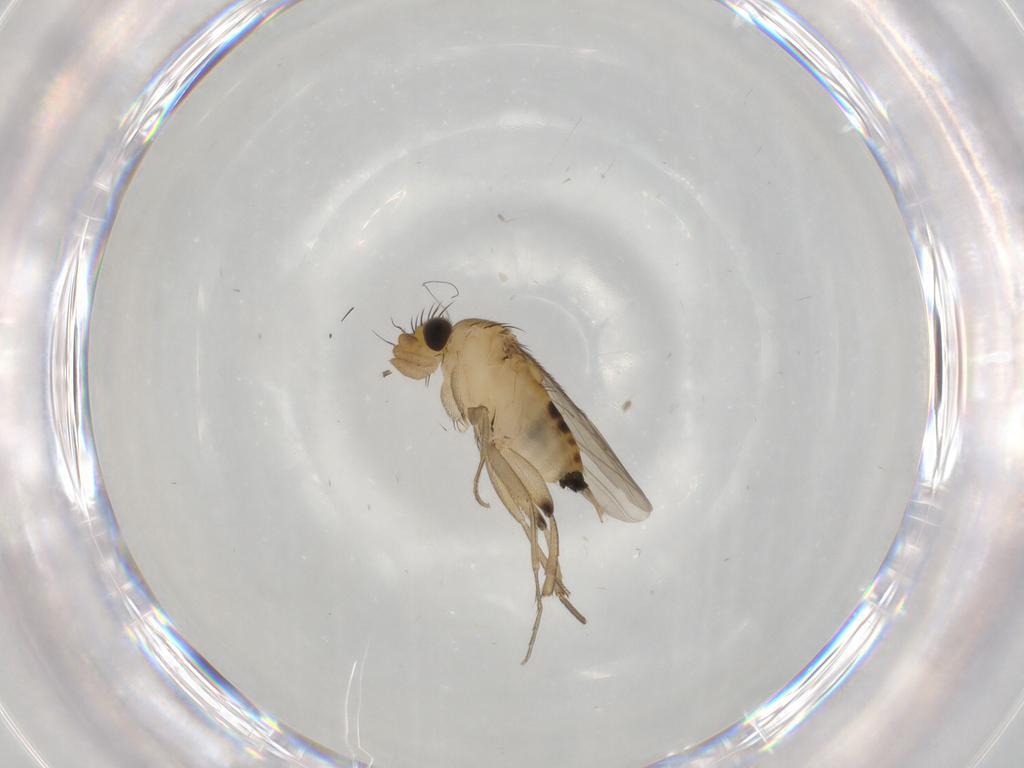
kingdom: Animalia
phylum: Arthropoda
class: Insecta
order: Diptera
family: Phoridae
